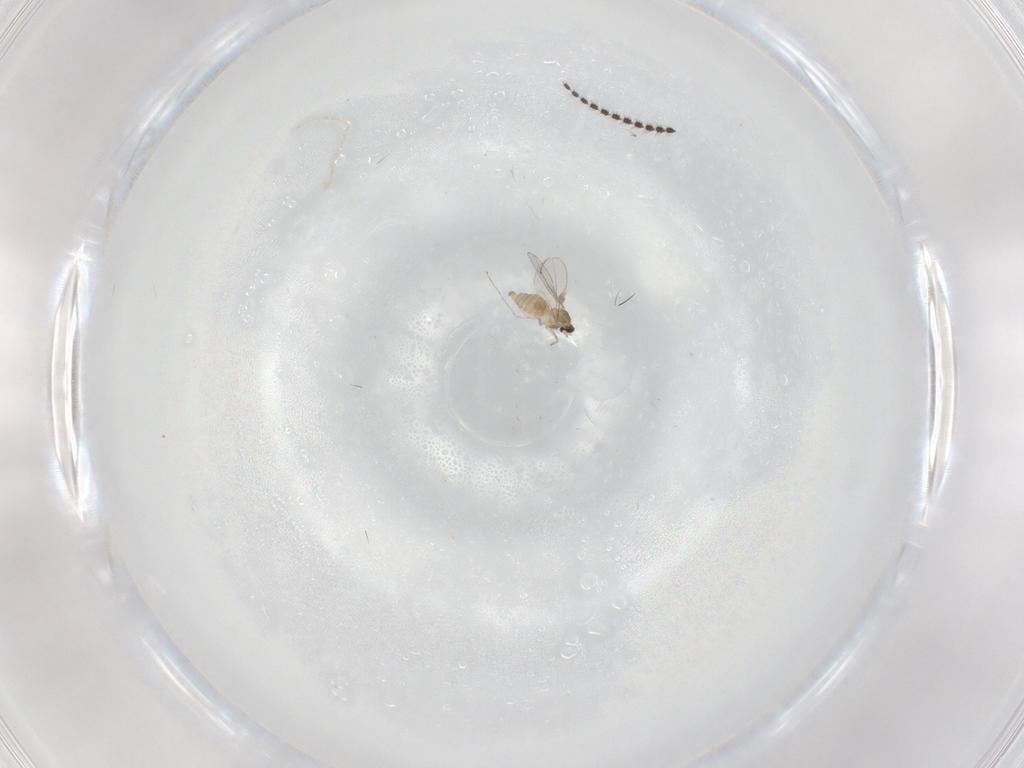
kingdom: Animalia
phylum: Arthropoda
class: Insecta
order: Diptera
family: Cecidomyiidae
